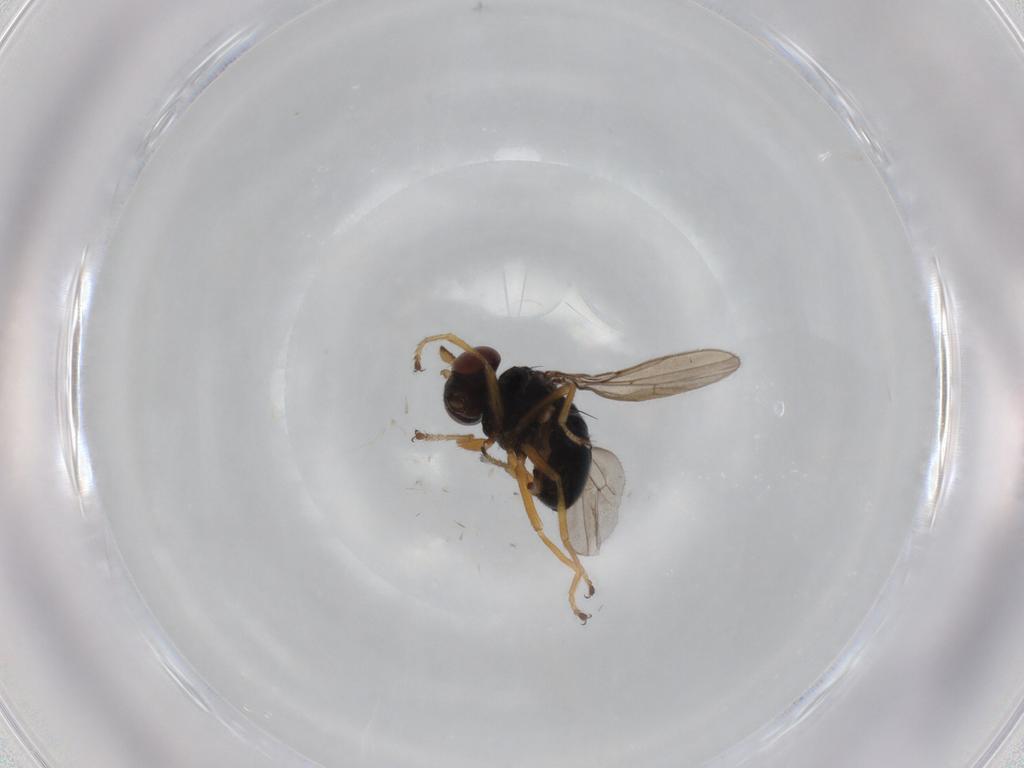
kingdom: Animalia
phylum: Arthropoda
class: Insecta
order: Diptera
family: Ephydridae
